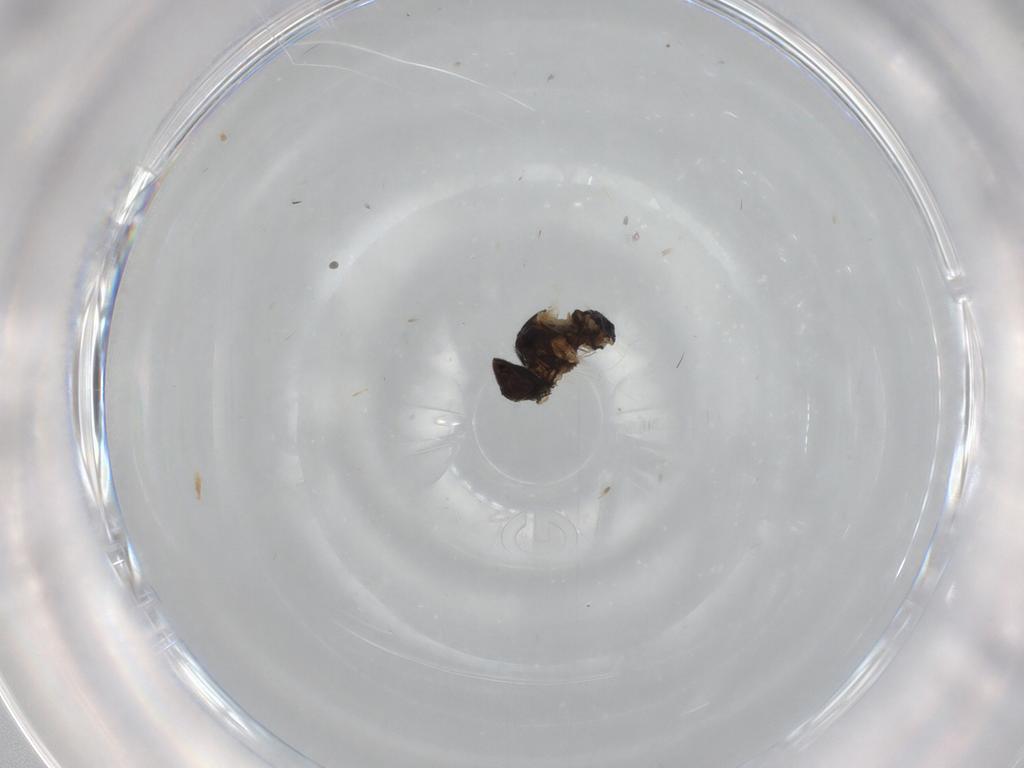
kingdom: Animalia
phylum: Arthropoda
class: Insecta
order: Diptera
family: Agromyzidae
